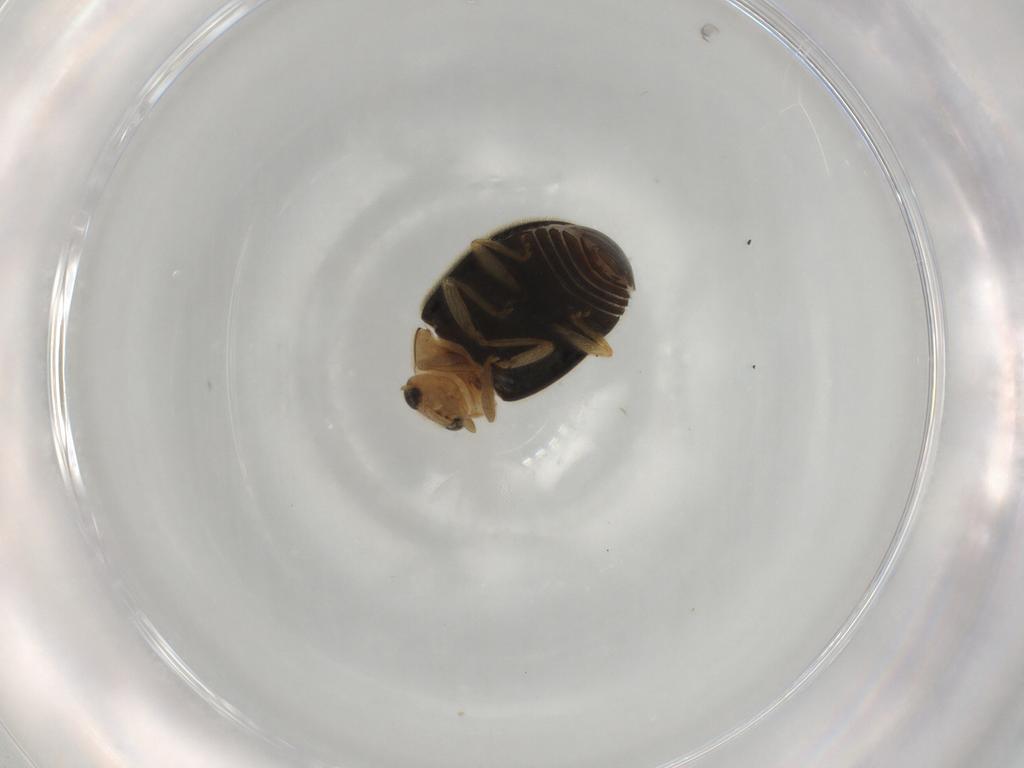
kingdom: Animalia
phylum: Arthropoda
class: Insecta
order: Coleoptera
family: Coccinellidae
